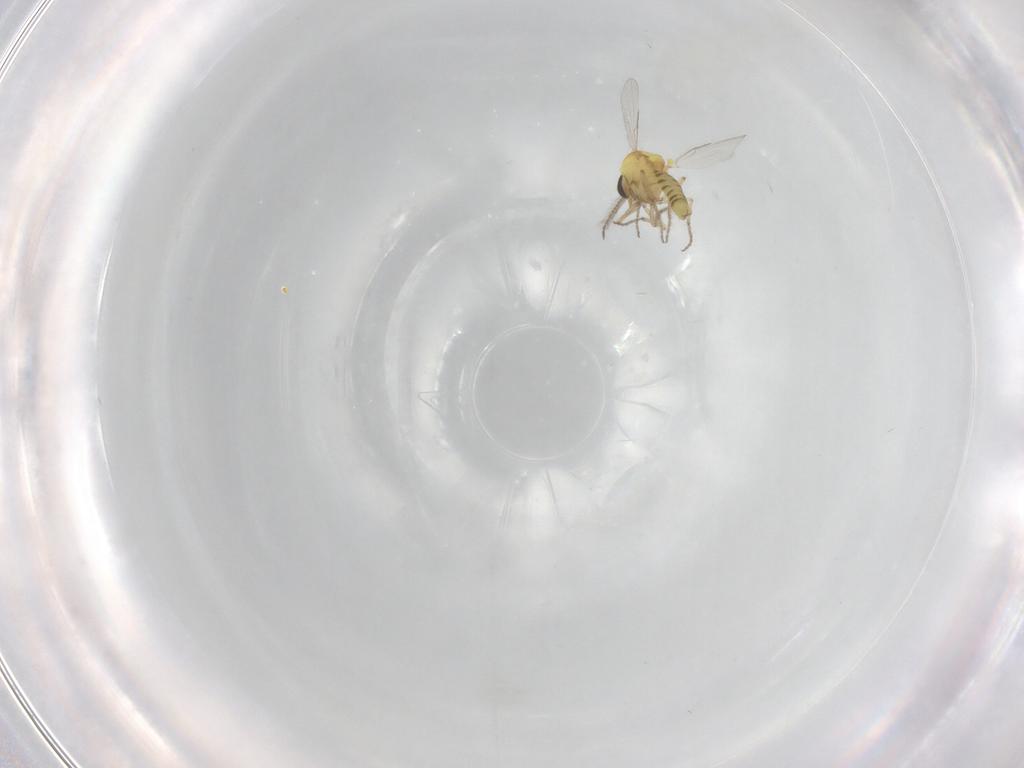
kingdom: Animalia
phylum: Arthropoda
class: Insecta
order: Diptera
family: Ceratopogonidae
